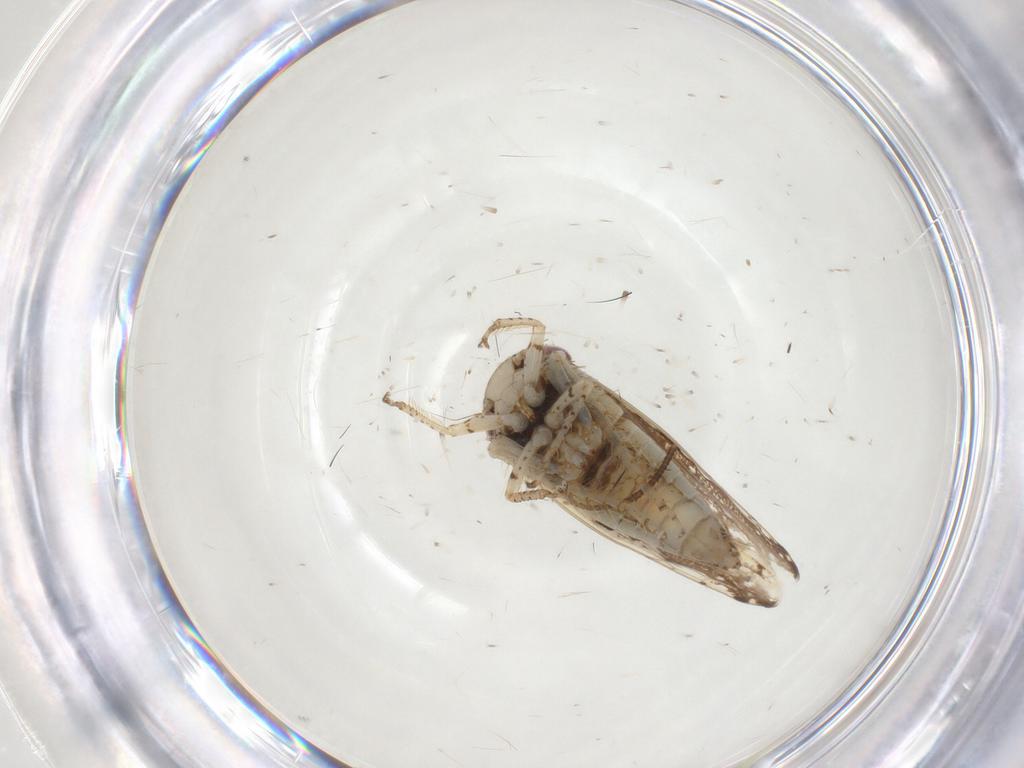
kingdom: Animalia
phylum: Arthropoda
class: Insecta
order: Hemiptera
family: Cicadellidae
